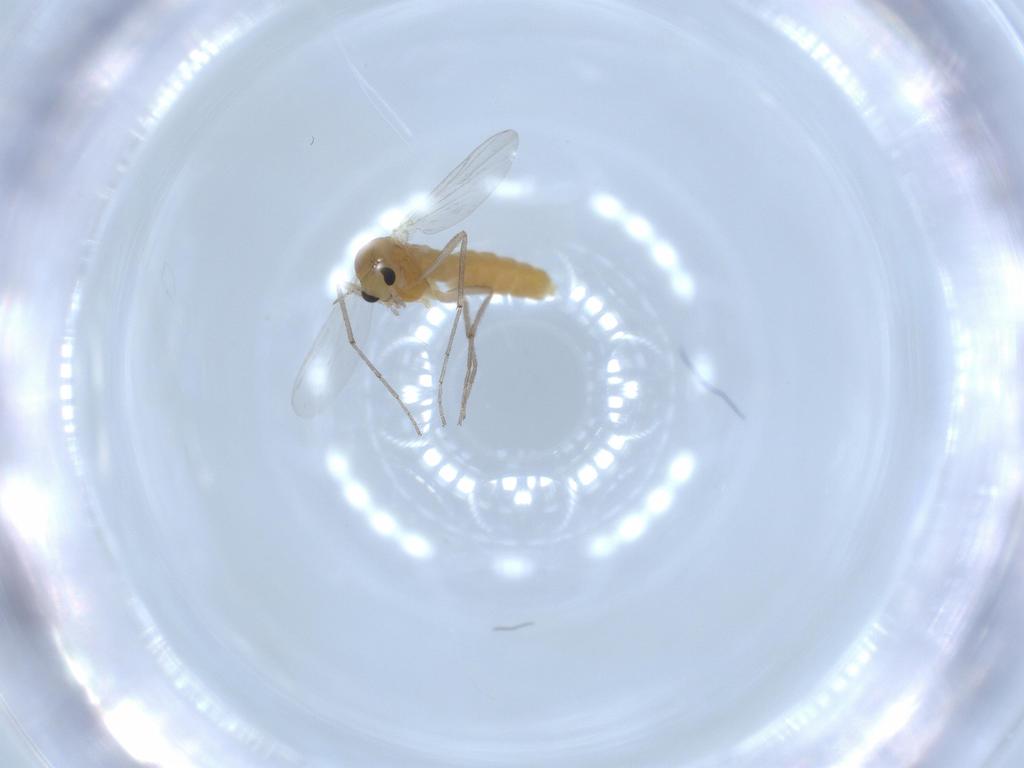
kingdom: Animalia
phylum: Arthropoda
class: Insecta
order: Diptera
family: Chironomidae
